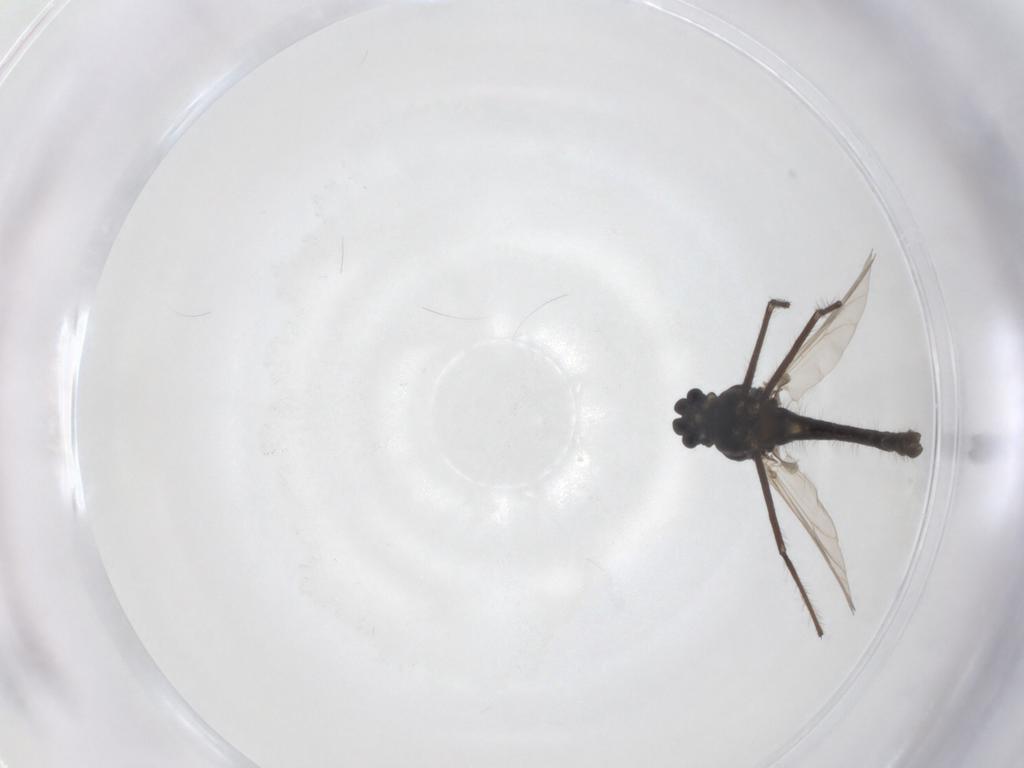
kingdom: Animalia
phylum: Arthropoda
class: Insecta
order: Diptera
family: Chironomidae
